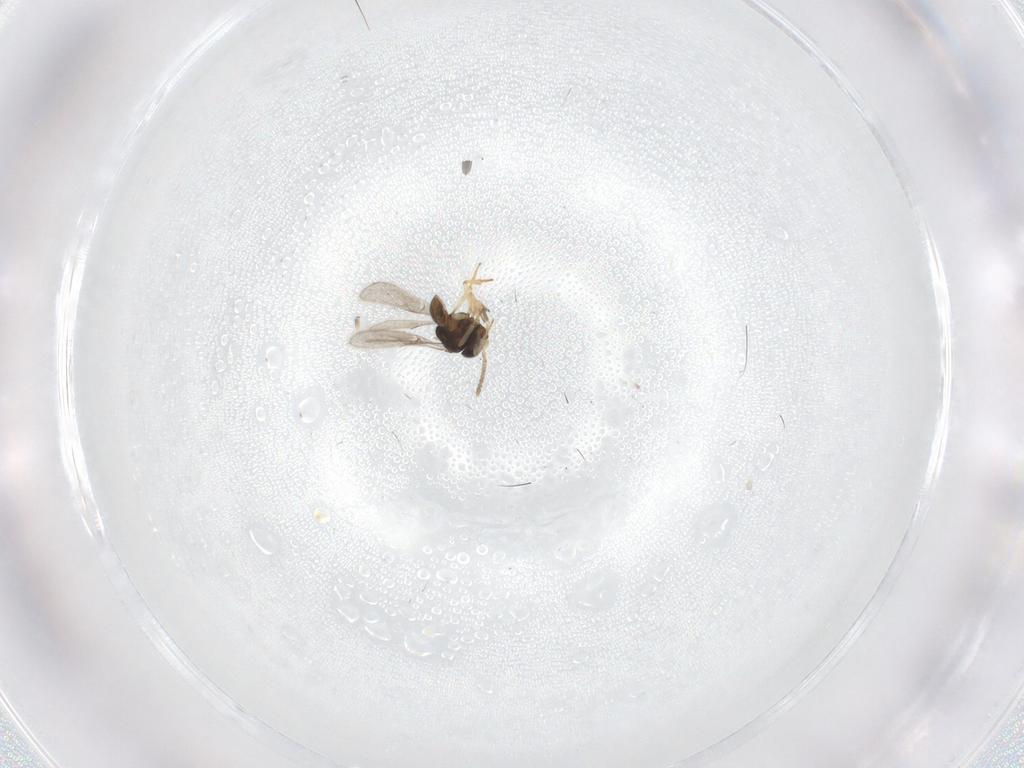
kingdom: Animalia
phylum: Arthropoda
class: Insecta
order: Hymenoptera
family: Scelionidae
